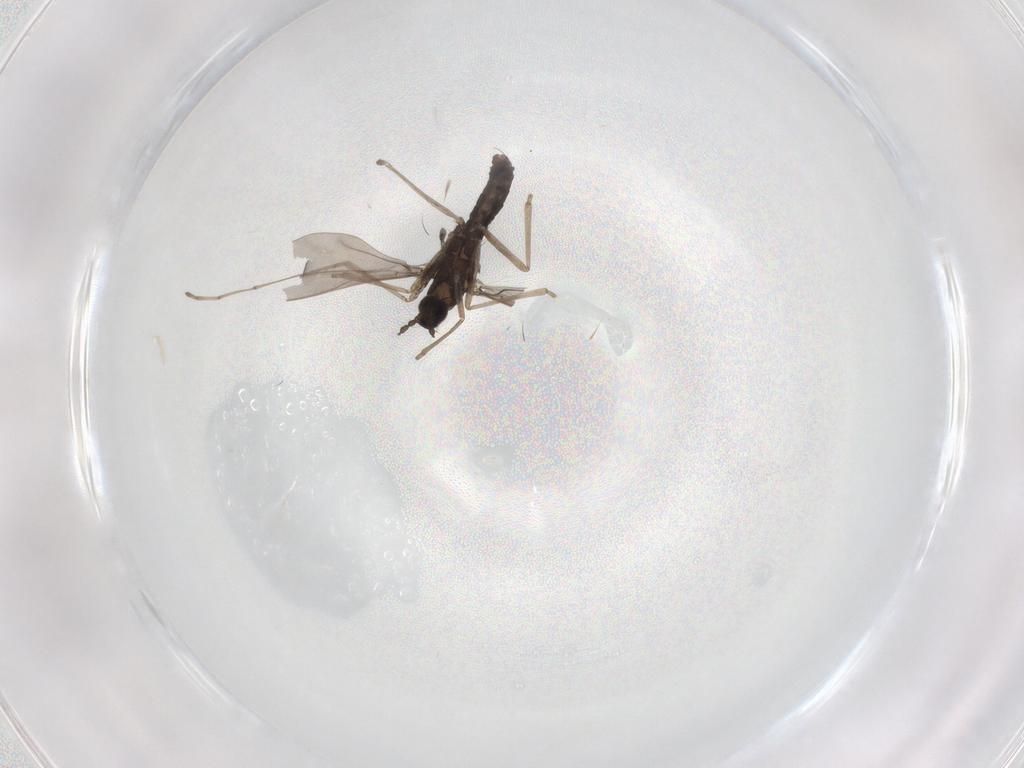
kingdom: Animalia
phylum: Arthropoda
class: Insecta
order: Diptera
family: Cecidomyiidae
